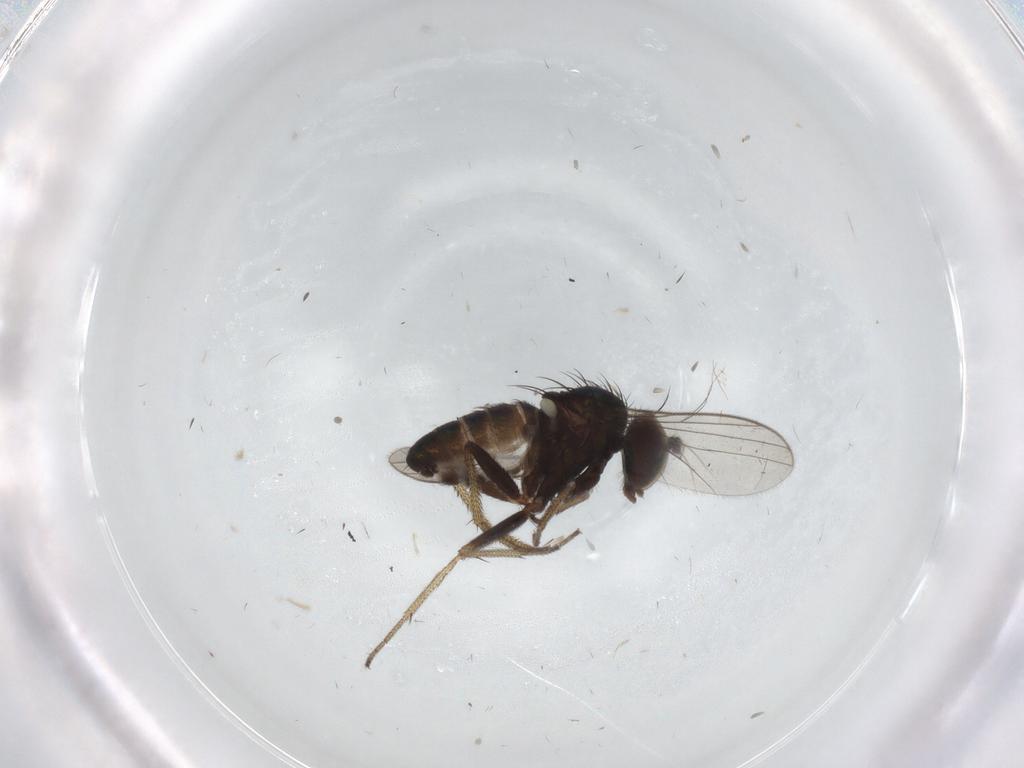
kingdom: Animalia
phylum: Arthropoda
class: Insecta
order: Diptera
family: Dolichopodidae
